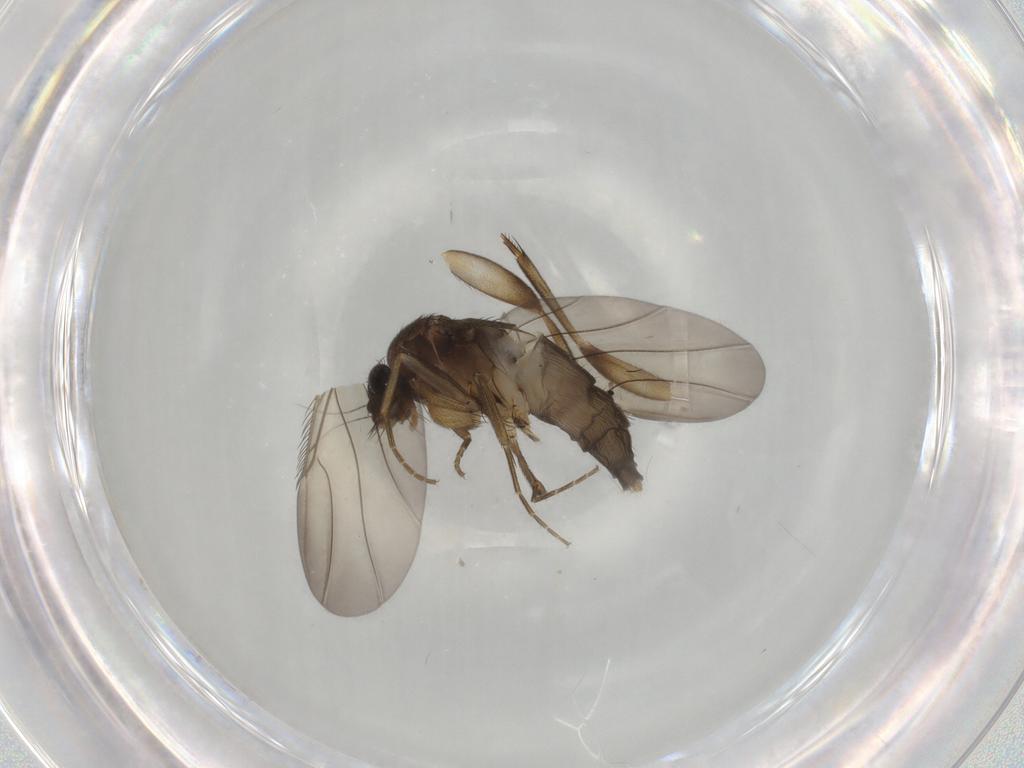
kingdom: Animalia
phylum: Arthropoda
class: Insecta
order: Diptera
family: Phoridae
